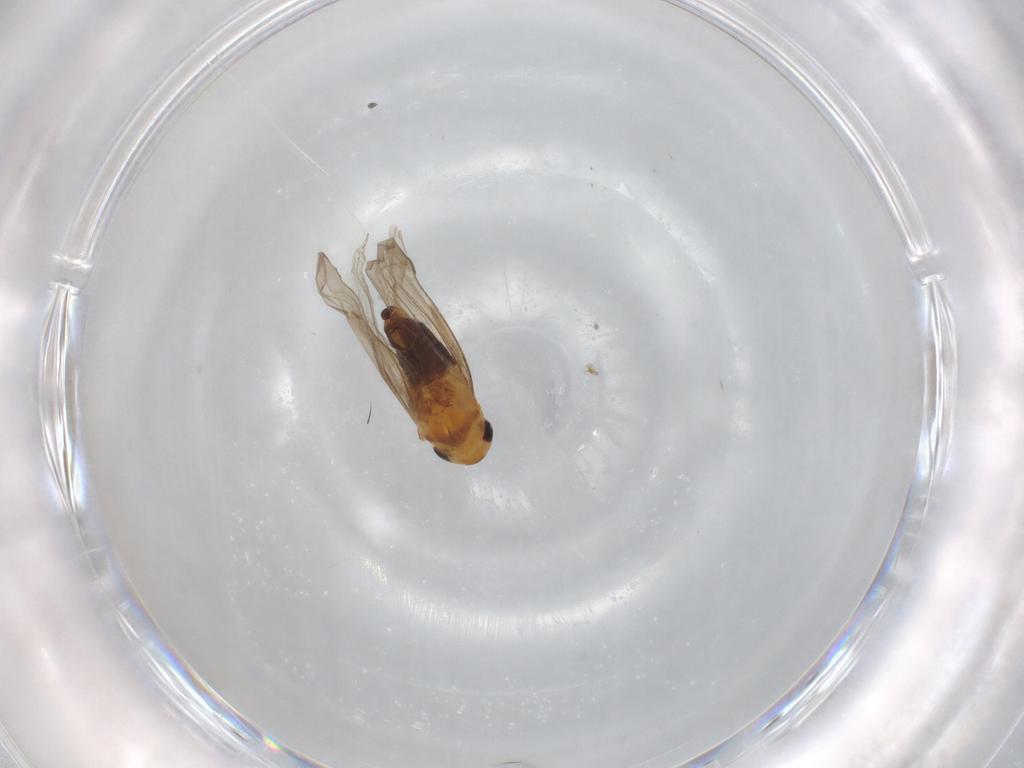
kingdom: Animalia
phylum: Arthropoda
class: Insecta
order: Hemiptera
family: Cicadellidae
